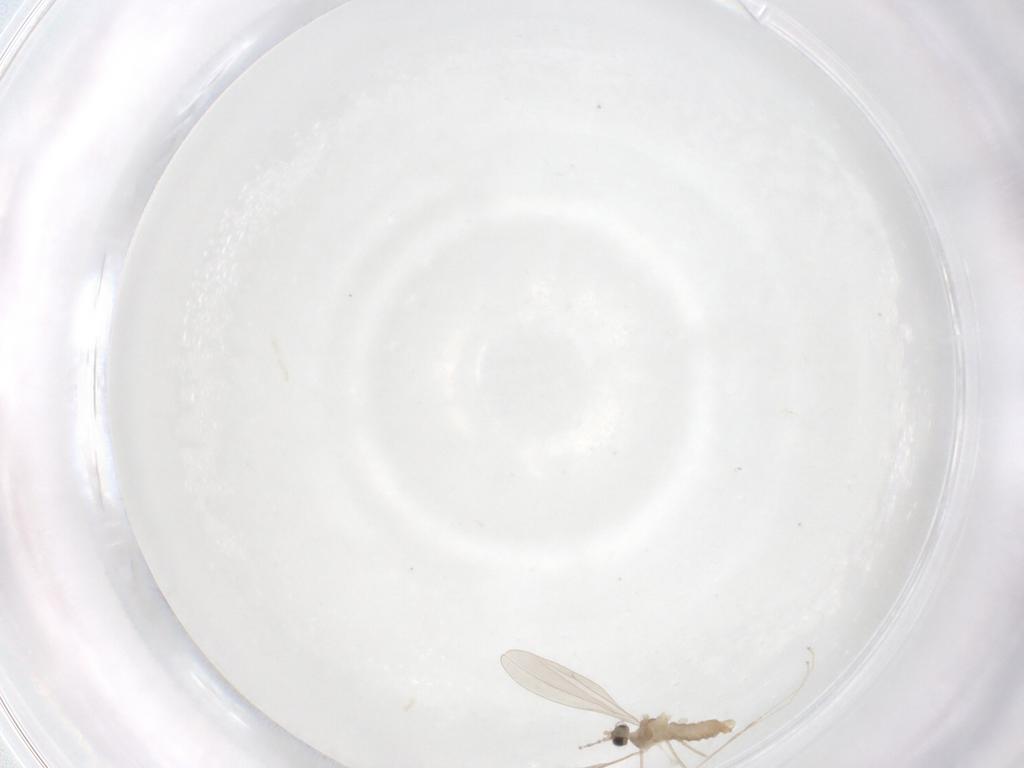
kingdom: Animalia
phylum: Arthropoda
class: Insecta
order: Diptera
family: Cecidomyiidae
